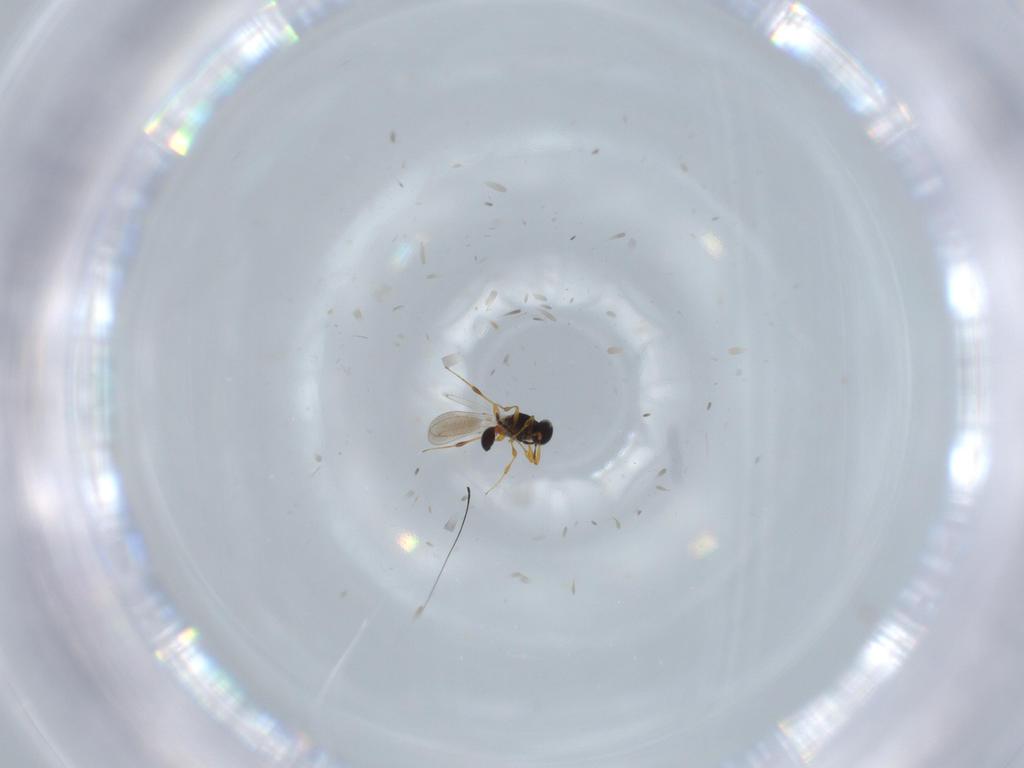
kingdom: Animalia
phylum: Arthropoda
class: Insecta
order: Hymenoptera
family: Platygastridae
